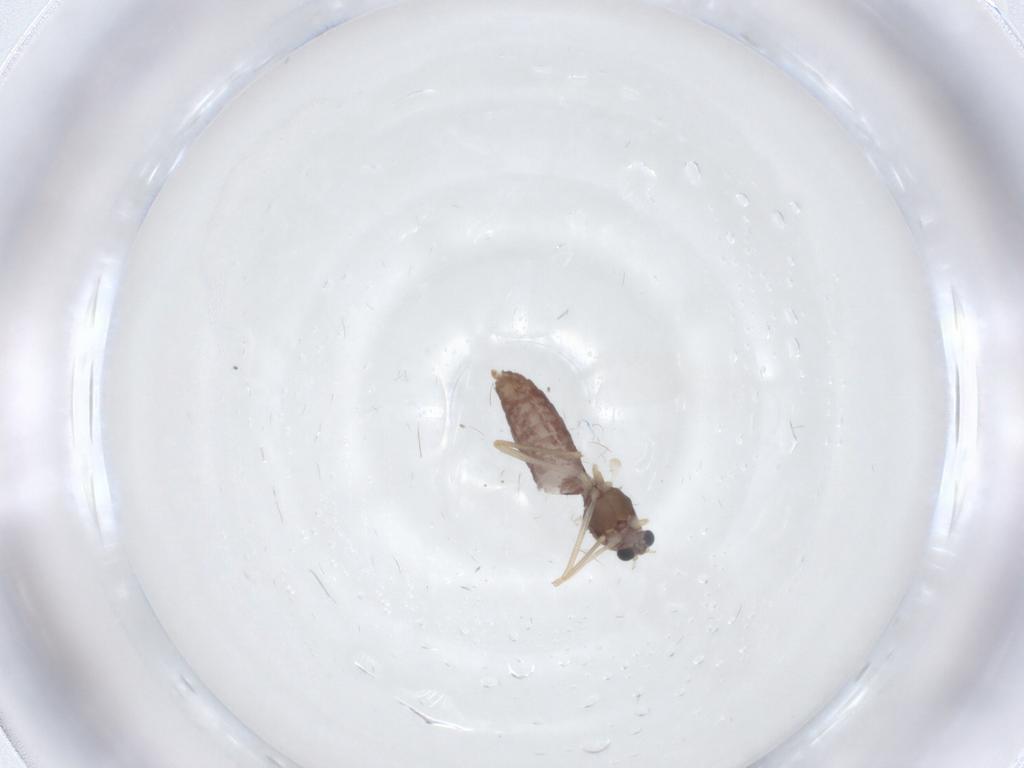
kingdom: Animalia
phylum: Arthropoda
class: Insecta
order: Diptera
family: Chironomidae
